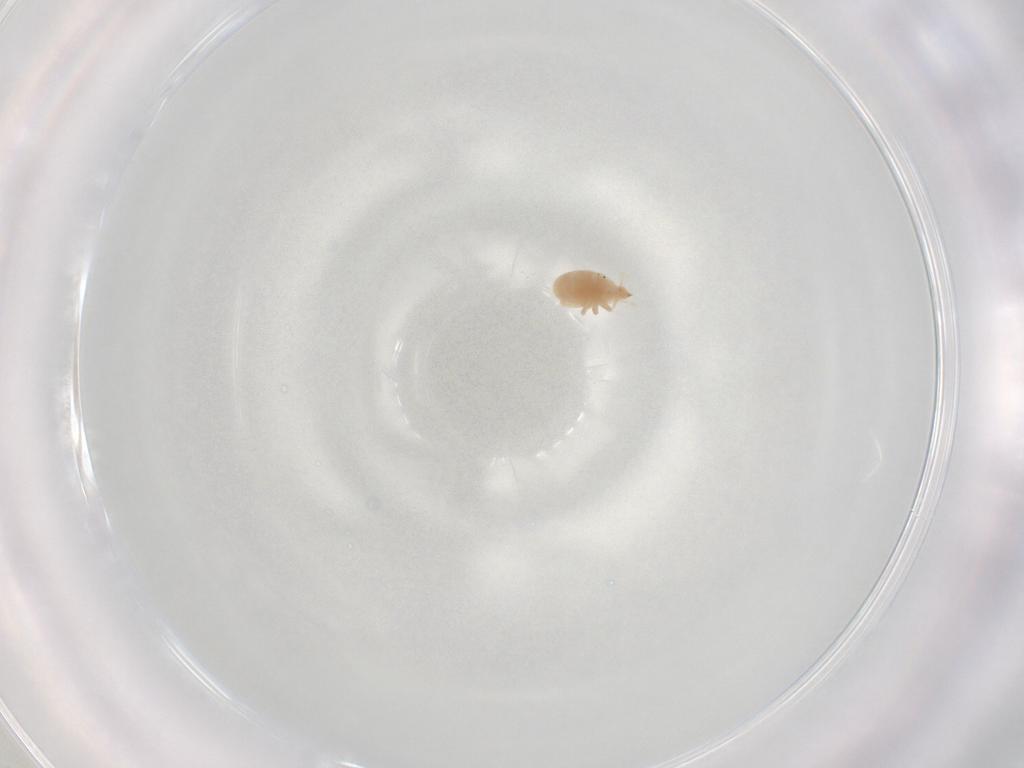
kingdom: Animalia
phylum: Arthropoda
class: Arachnida
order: Trombidiformes
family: Bdellidae
